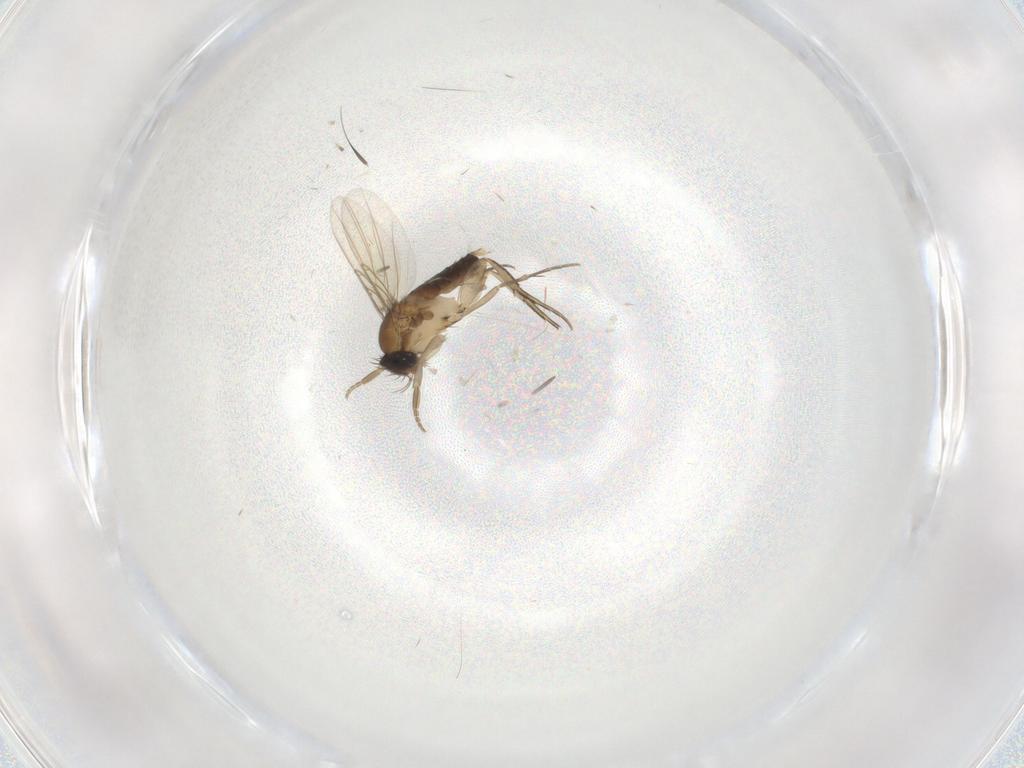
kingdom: Animalia
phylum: Arthropoda
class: Insecta
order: Diptera
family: Phoridae
